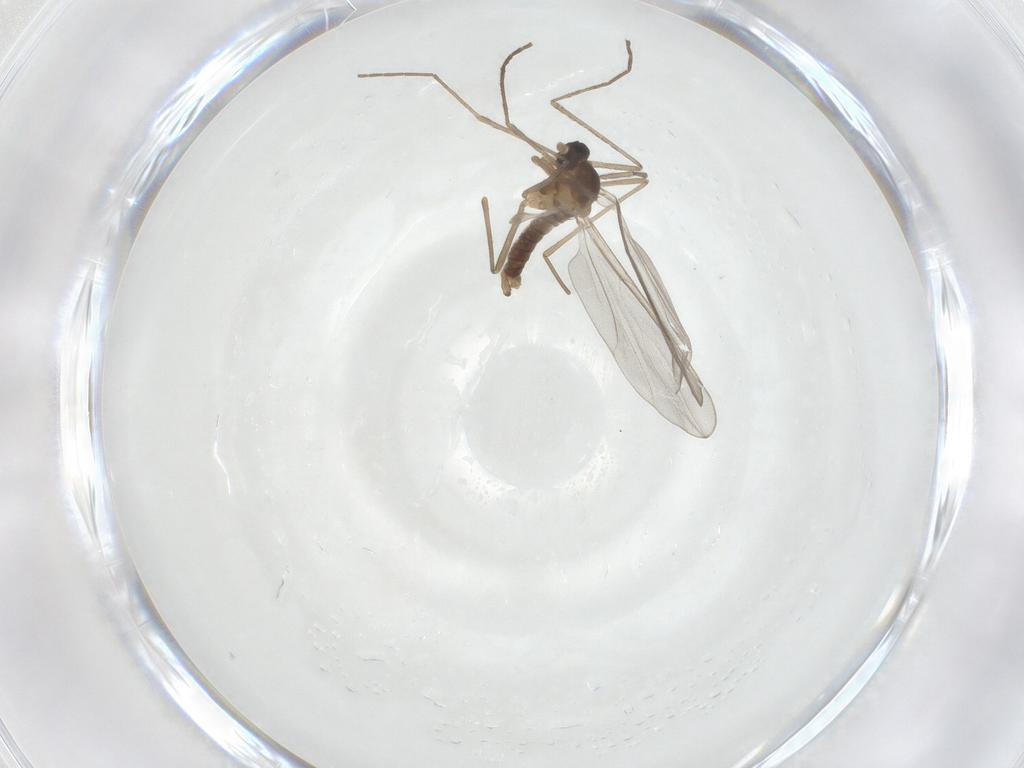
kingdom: Animalia
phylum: Arthropoda
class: Insecta
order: Diptera
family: Cecidomyiidae
